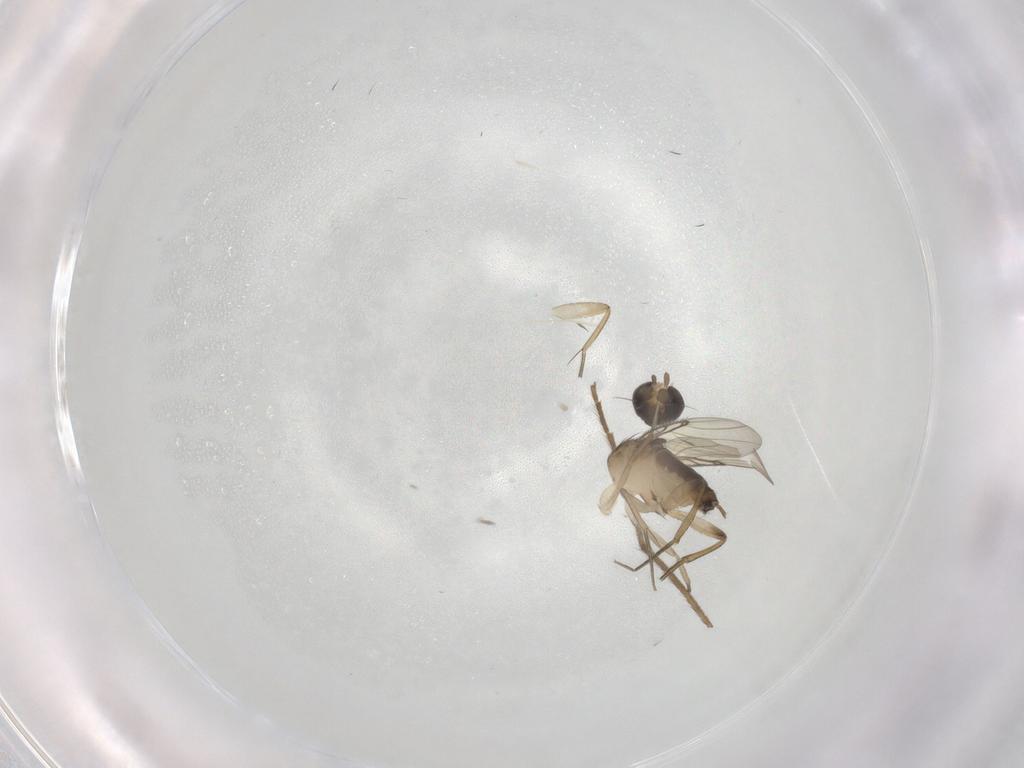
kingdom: Animalia
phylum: Arthropoda
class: Insecta
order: Diptera
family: Phoridae
